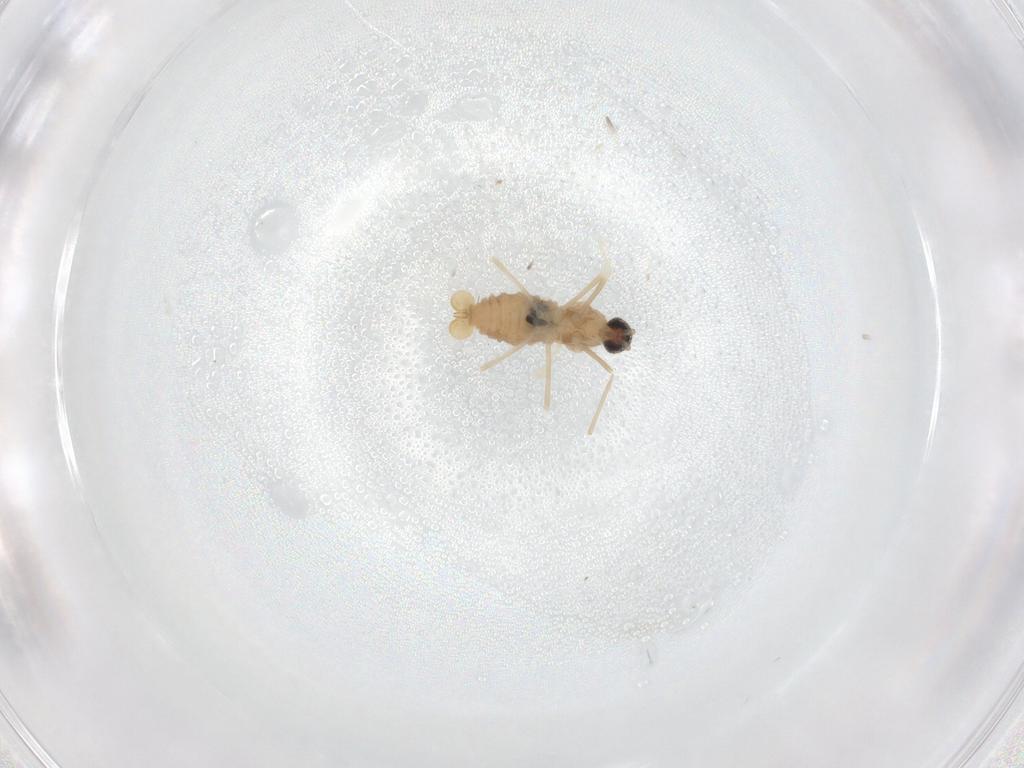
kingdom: Animalia
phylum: Arthropoda
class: Insecta
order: Diptera
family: Cecidomyiidae
